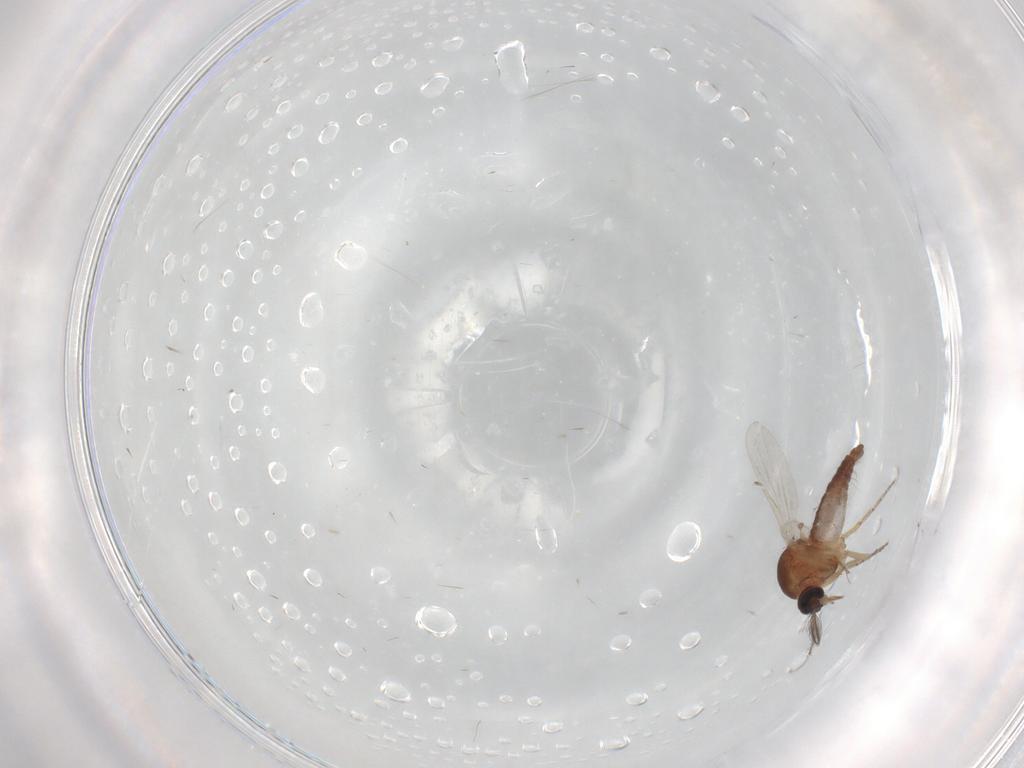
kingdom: Animalia
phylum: Arthropoda
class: Insecta
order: Diptera
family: Ceratopogonidae
